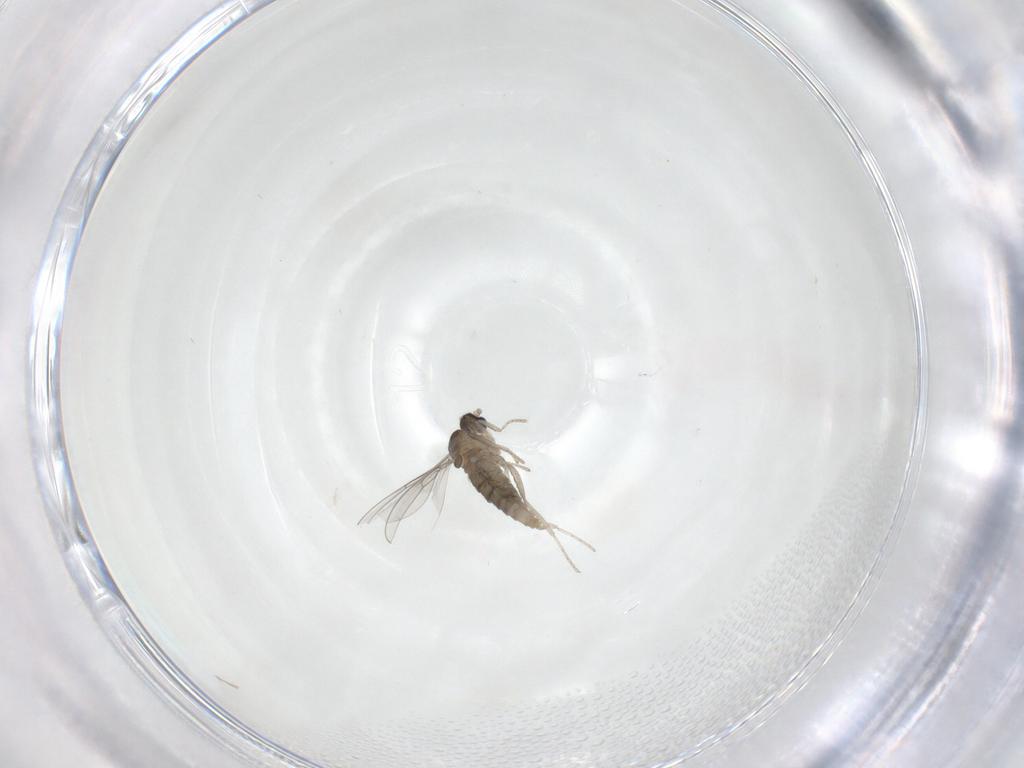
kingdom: Animalia
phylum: Arthropoda
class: Insecta
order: Diptera
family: Cecidomyiidae
